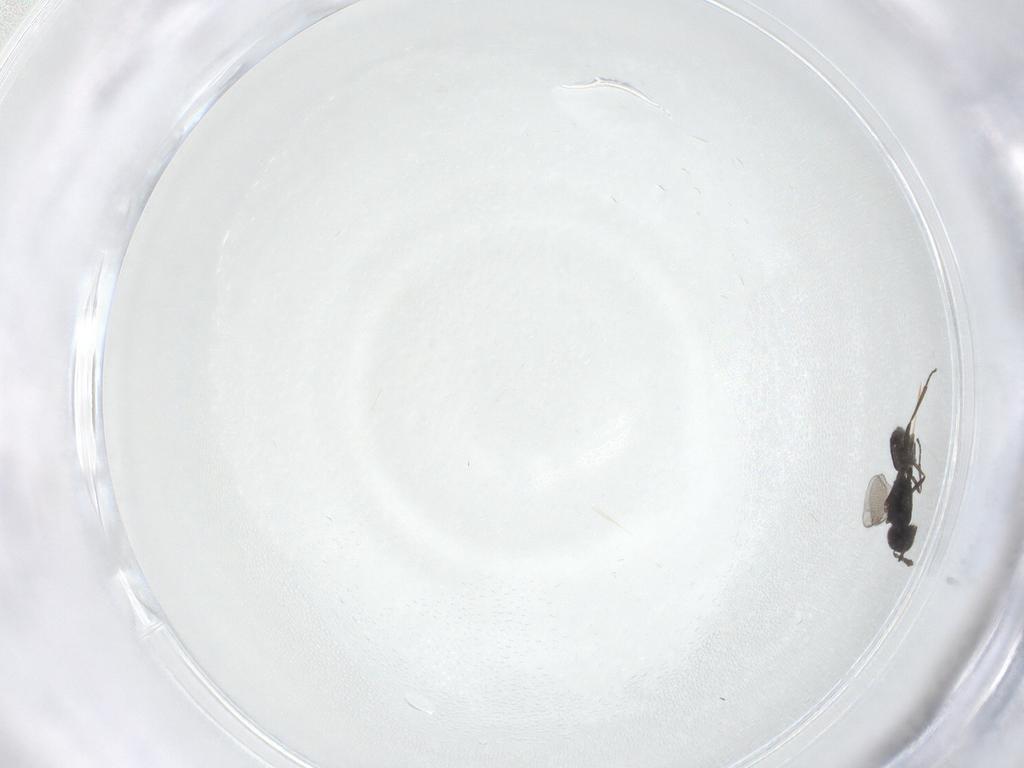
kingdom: Animalia
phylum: Arthropoda
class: Insecta
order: Hymenoptera
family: Eulophidae
